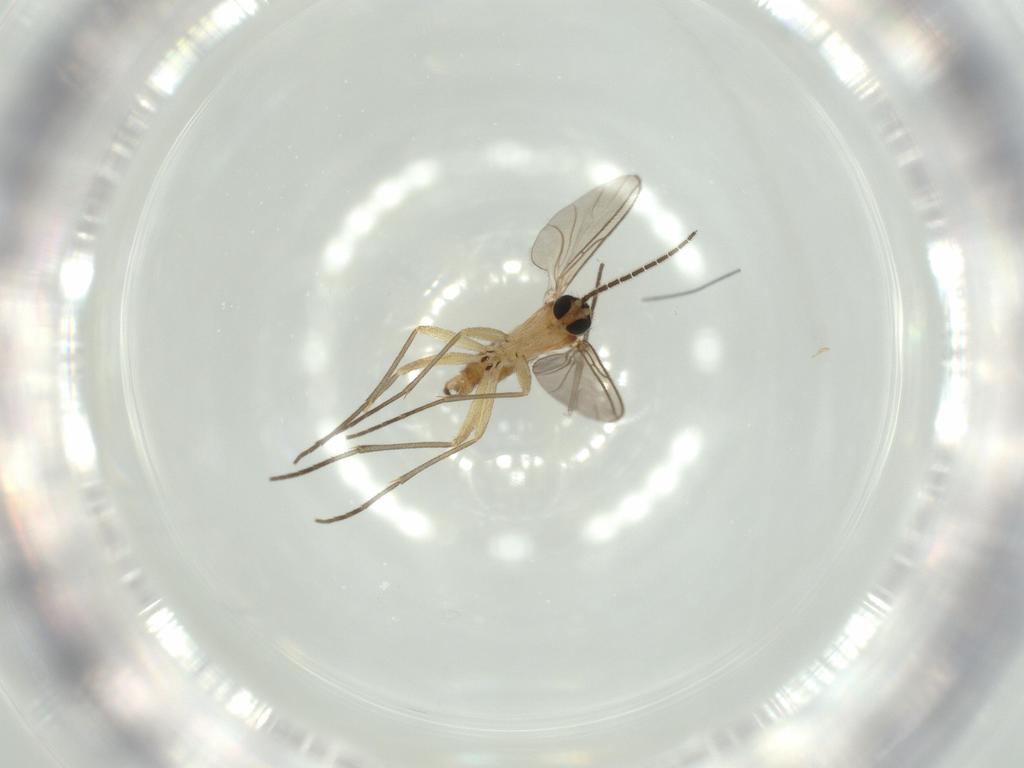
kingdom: Animalia
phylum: Arthropoda
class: Insecta
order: Diptera
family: Sciaridae
